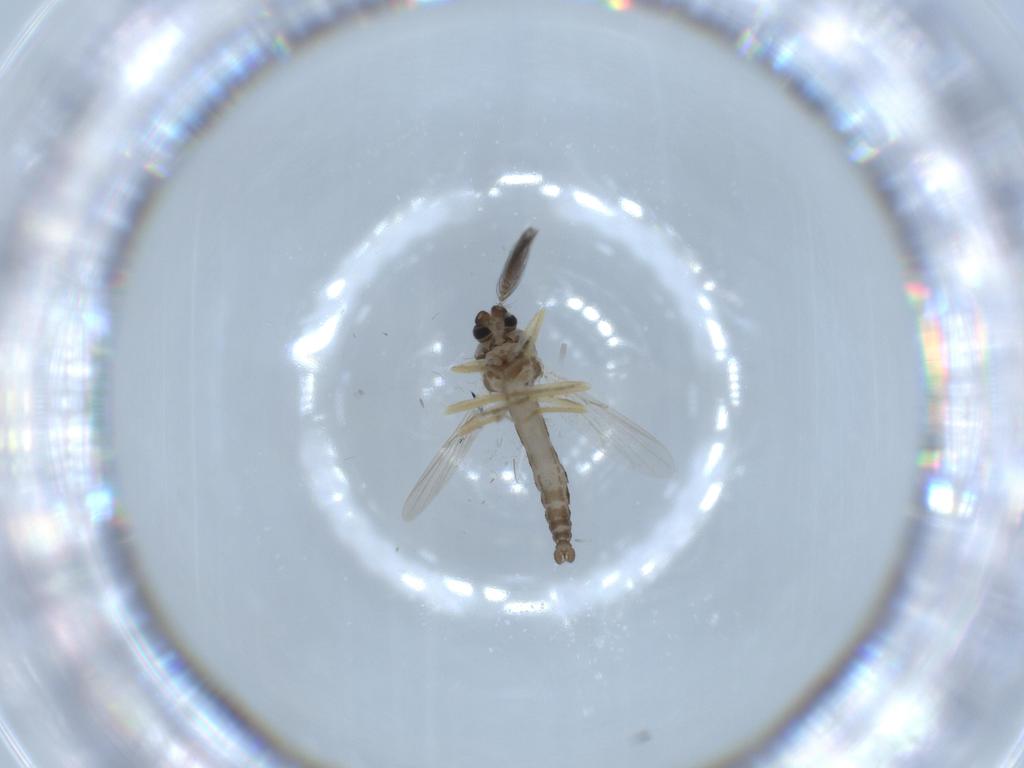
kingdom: Animalia
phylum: Arthropoda
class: Insecta
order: Diptera
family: Ceratopogonidae
